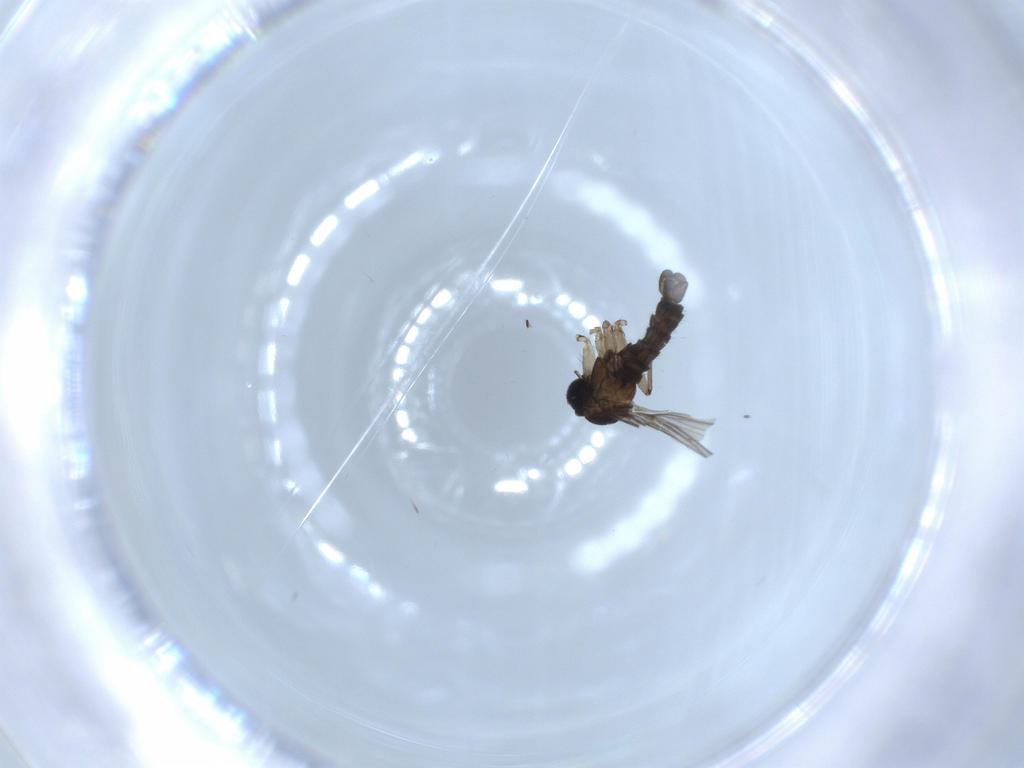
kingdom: Animalia
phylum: Arthropoda
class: Insecta
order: Diptera
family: Sciaridae
